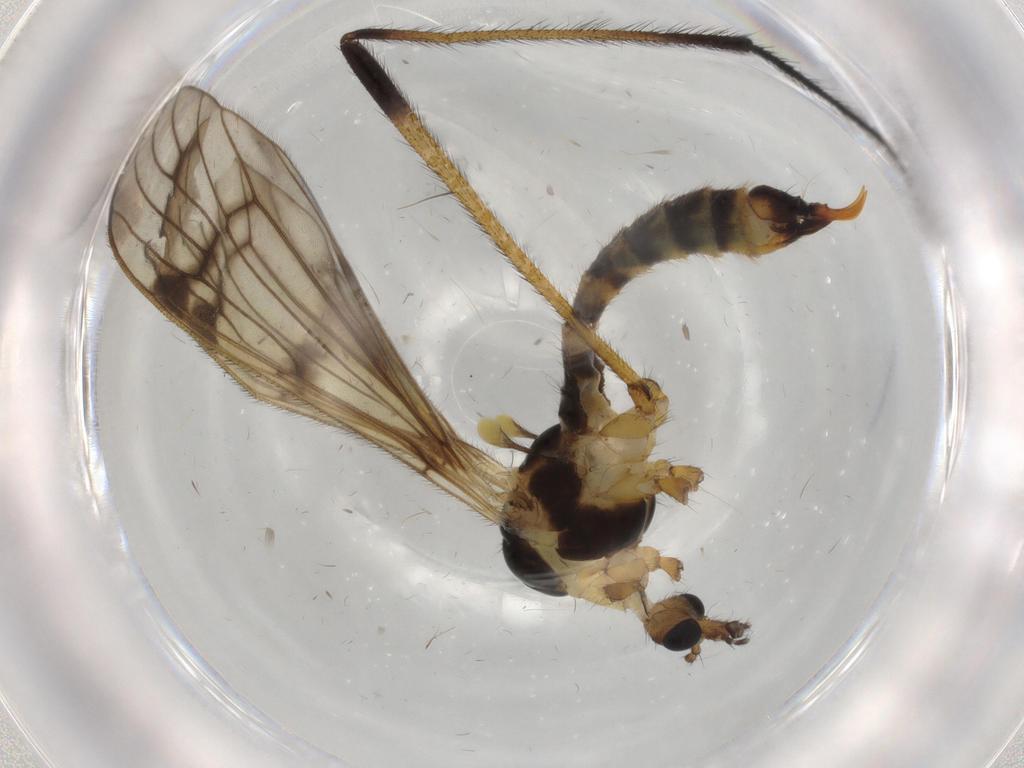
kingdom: Animalia
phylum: Arthropoda
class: Insecta
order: Diptera
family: Limoniidae
